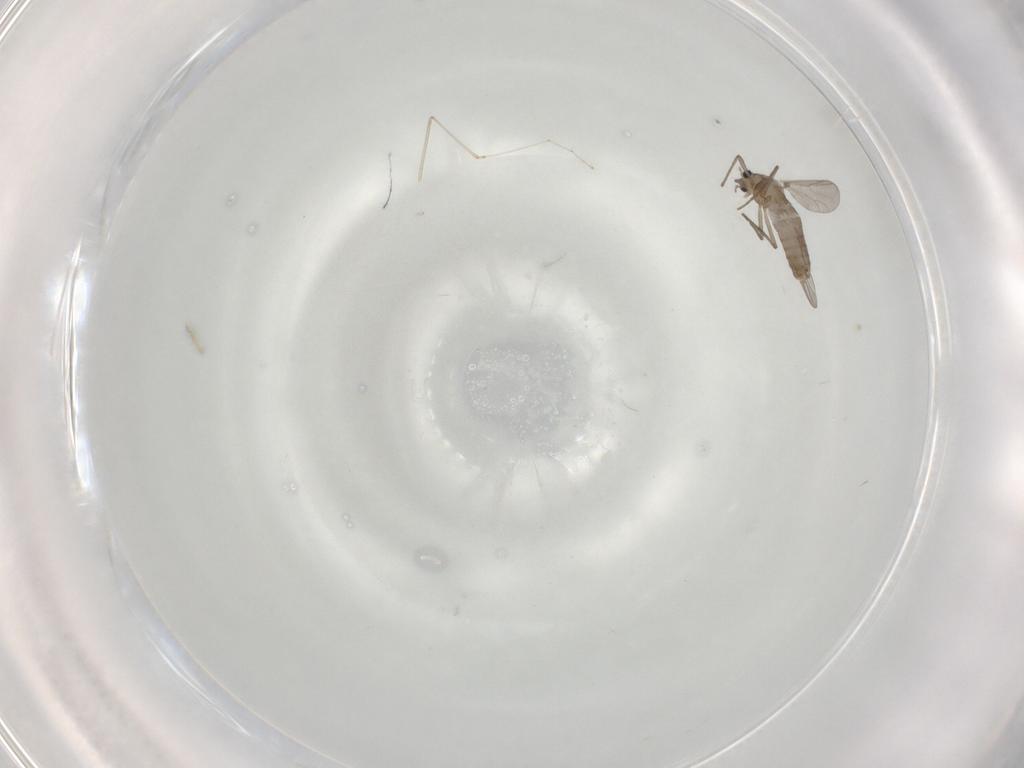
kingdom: Animalia
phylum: Arthropoda
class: Insecta
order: Diptera
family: Chironomidae
